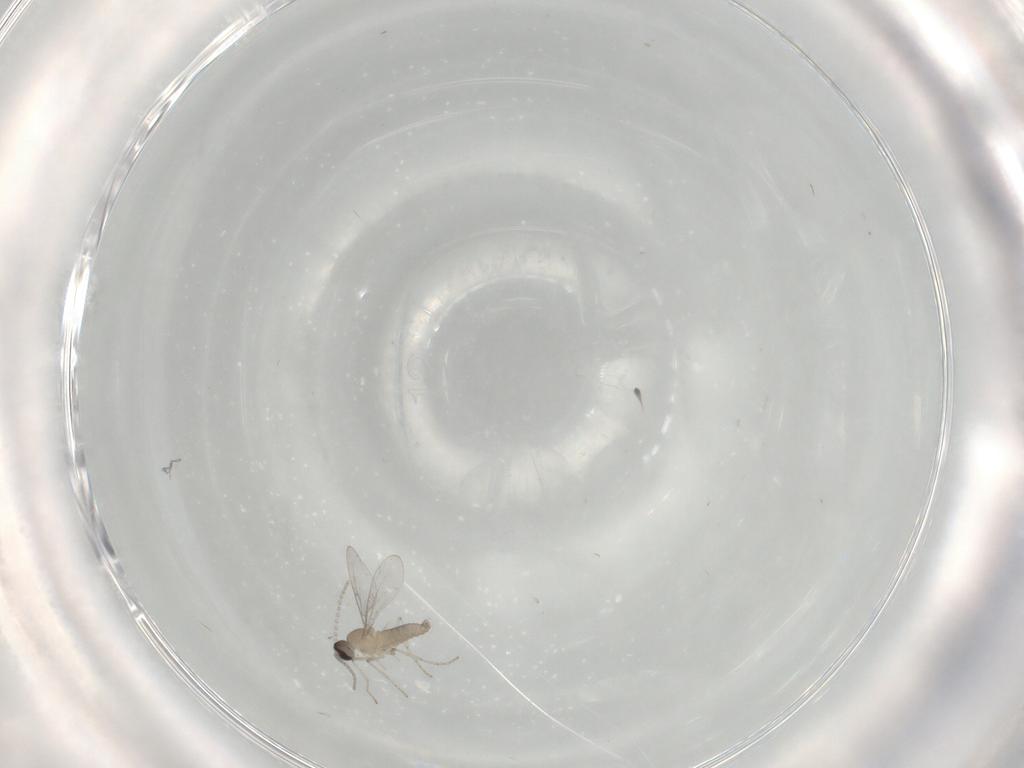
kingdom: Animalia
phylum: Arthropoda
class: Insecta
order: Diptera
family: Cecidomyiidae
